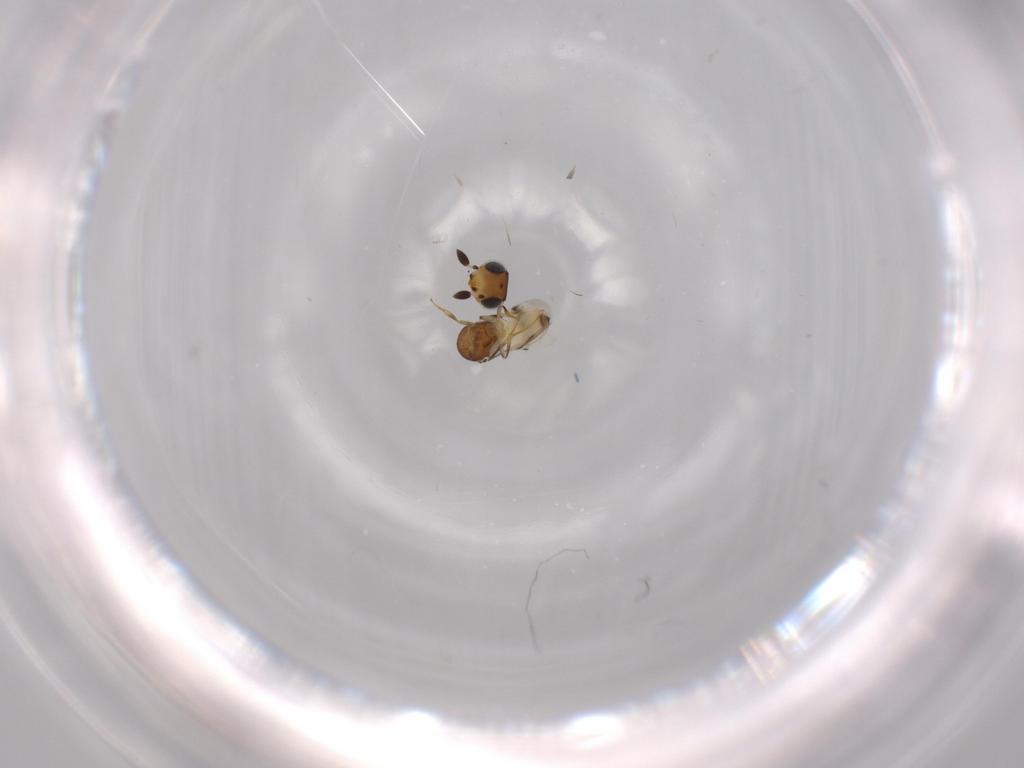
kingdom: Animalia
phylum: Arthropoda
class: Arachnida
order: Araneae
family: Pholcidae
